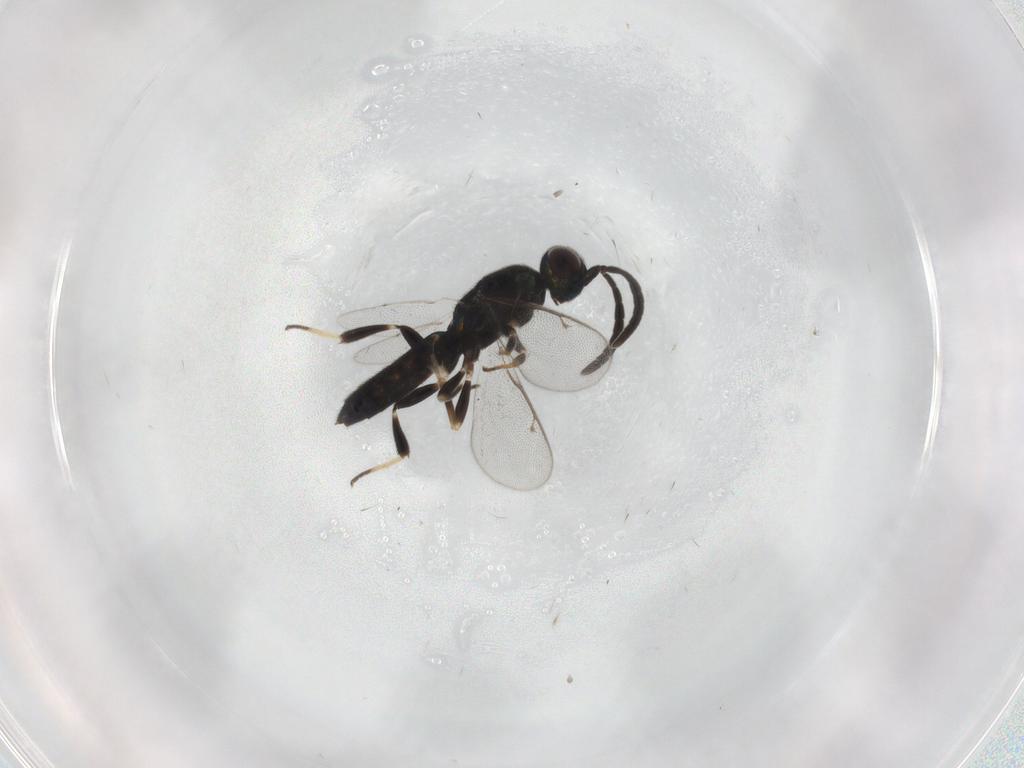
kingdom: Animalia
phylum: Arthropoda
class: Insecta
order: Hymenoptera
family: Eupelmidae
